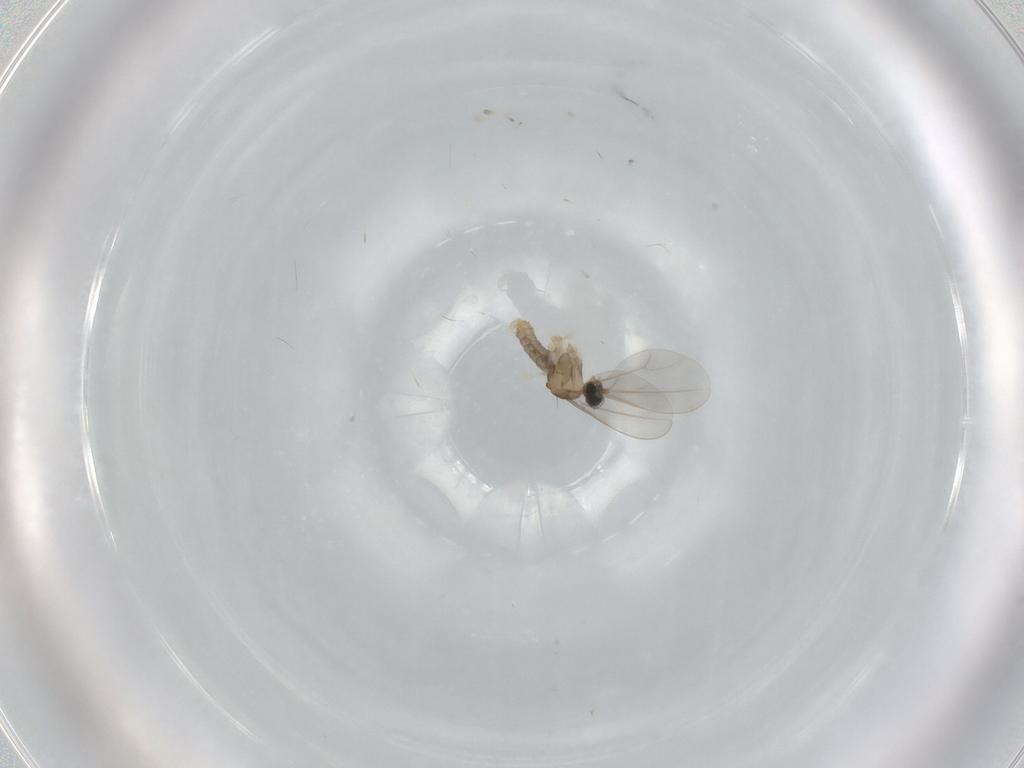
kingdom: Animalia
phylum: Arthropoda
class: Insecta
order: Diptera
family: Cecidomyiidae
